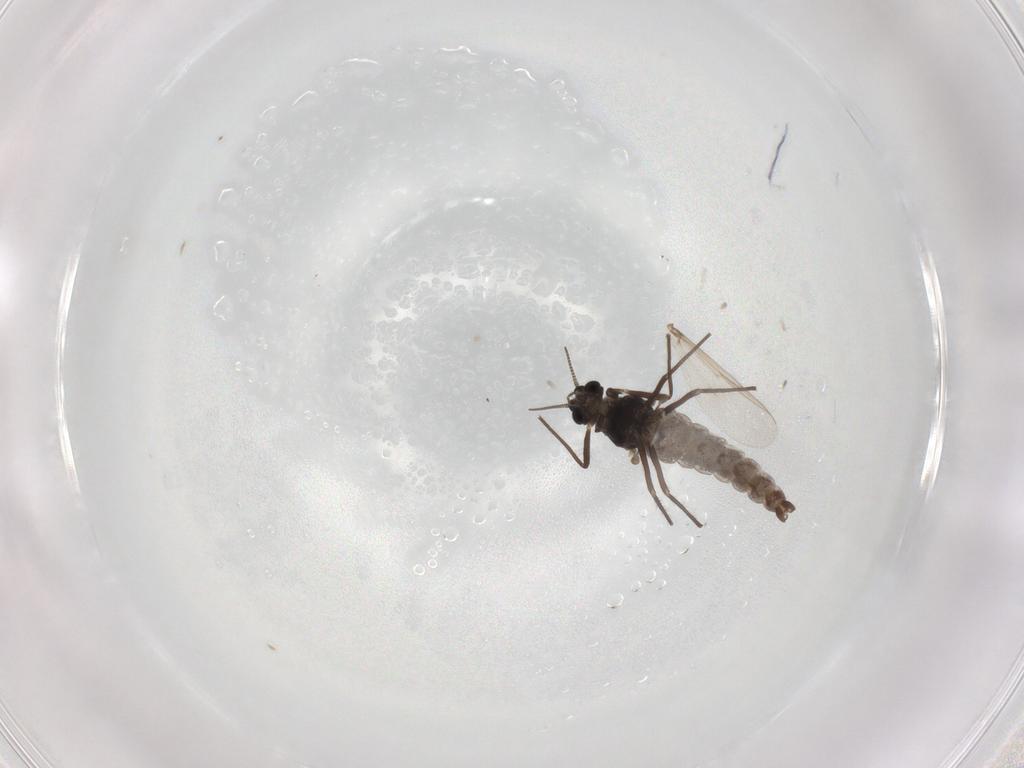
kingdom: Animalia
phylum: Arthropoda
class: Insecta
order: Diptera
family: Chironomidae
